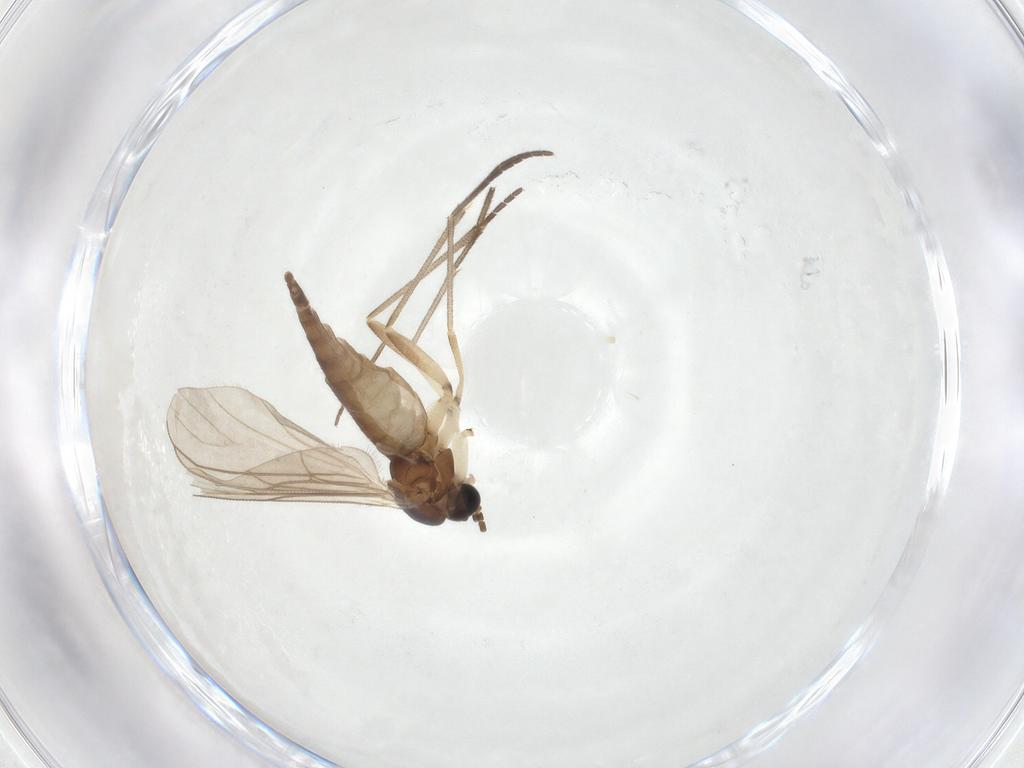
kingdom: Animalia
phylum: Arthropoda
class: Insecta
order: Diptera
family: Sciaridae
